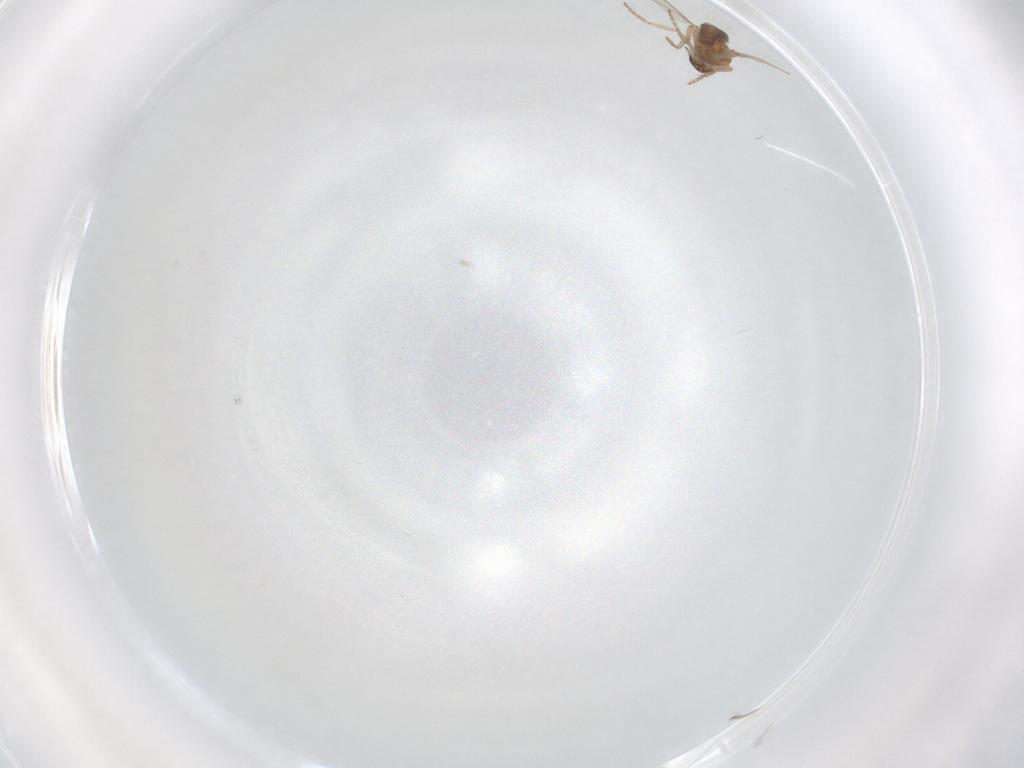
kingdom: Animalia
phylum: Arthropoda
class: Insecta
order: Diptera
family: Ceratopogonidae
